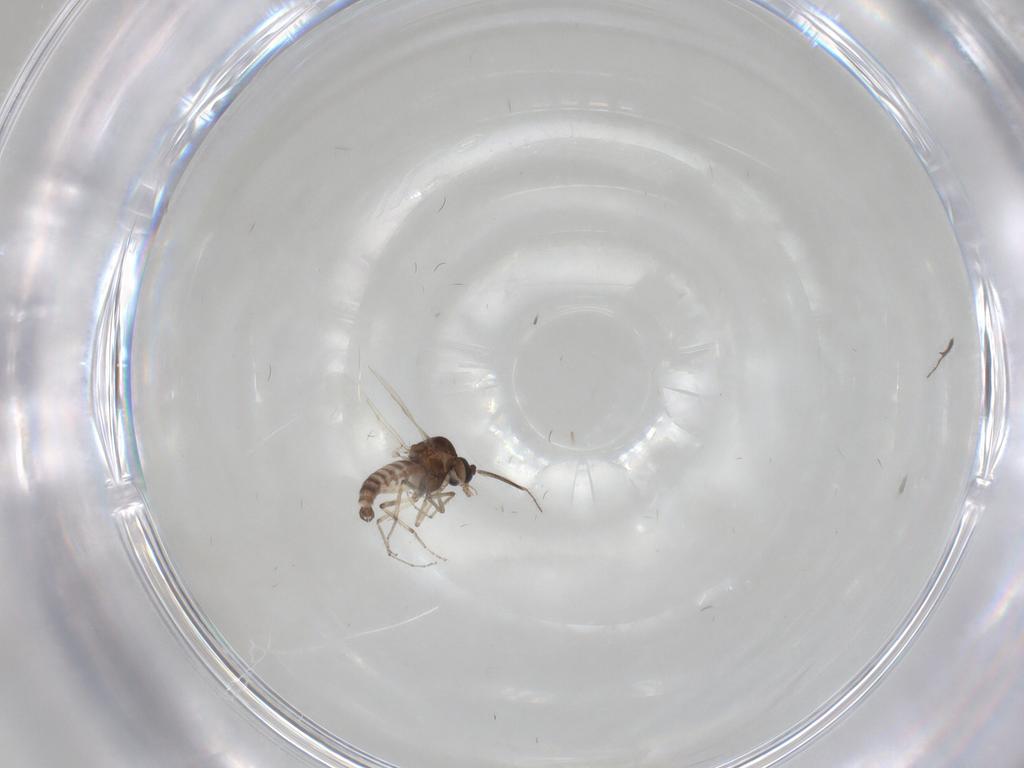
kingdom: Animalia
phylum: Arthropoda
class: Insecta
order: Diptera
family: Ceratopogonidae
